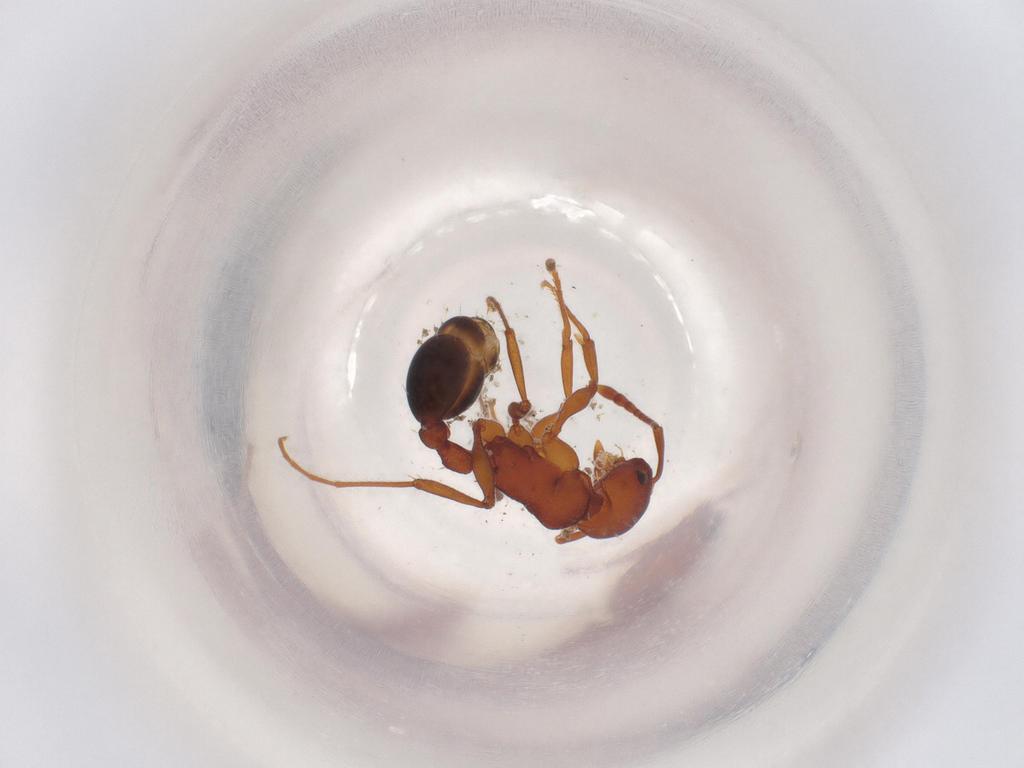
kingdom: Animalia
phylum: Arthropoda
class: Insecta
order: Hymenoptera
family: Formicidae
